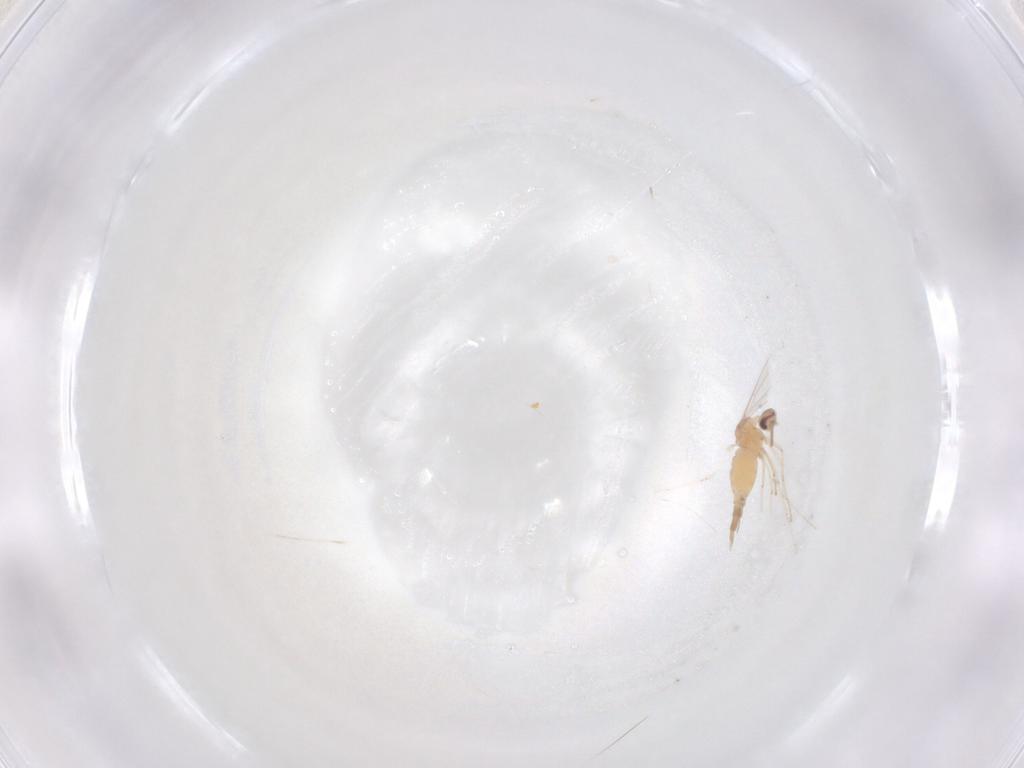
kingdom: Animalia
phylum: Arthropoda
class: Insecta
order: Diptera
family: Cecidomyiidae
